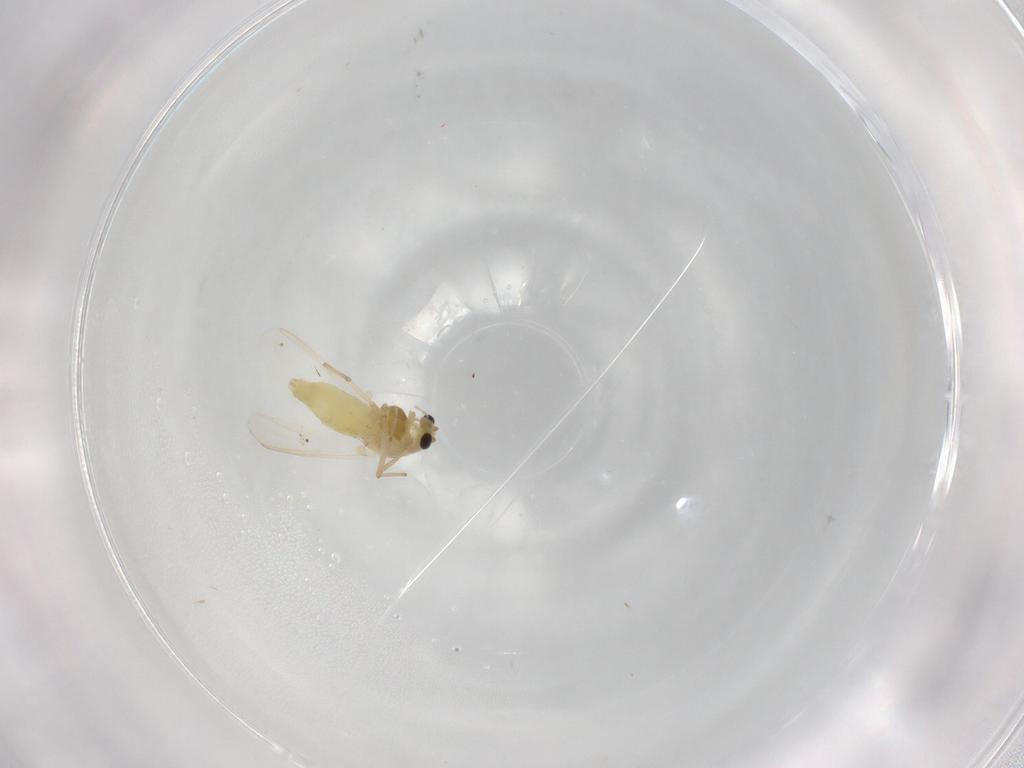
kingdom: Animalia
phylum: Arthropoda
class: Insecta
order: Diptera
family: Chironomidae
